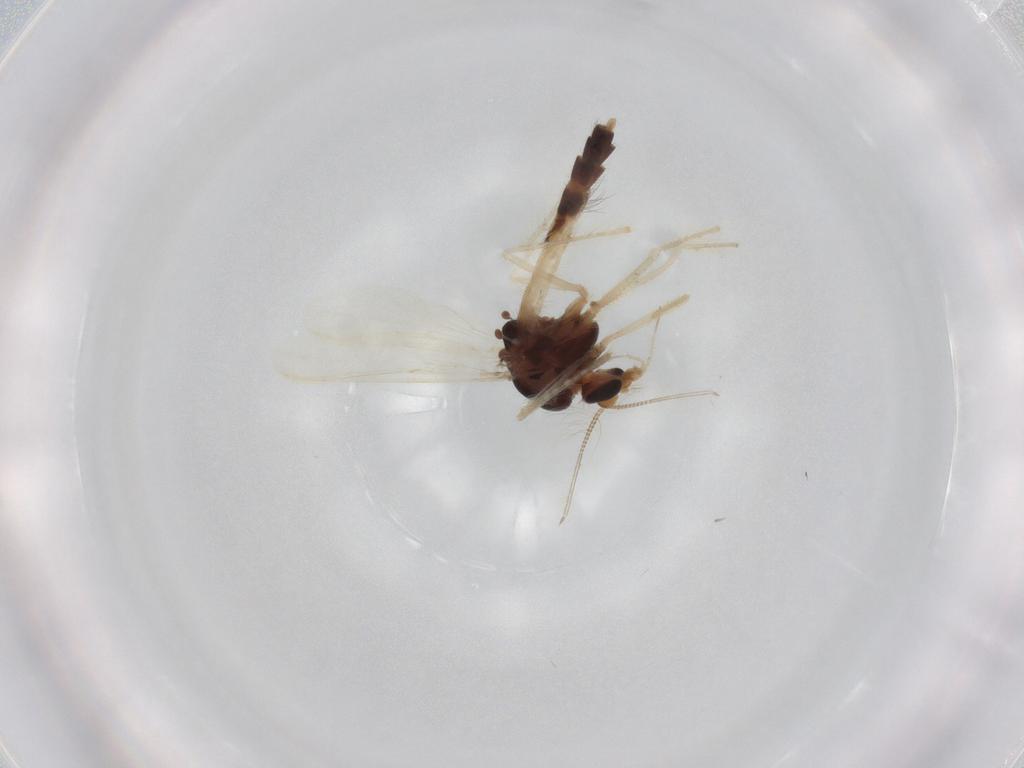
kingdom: Animalia
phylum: Arthropoda
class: Insecta
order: Diptera
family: Chironomidae
